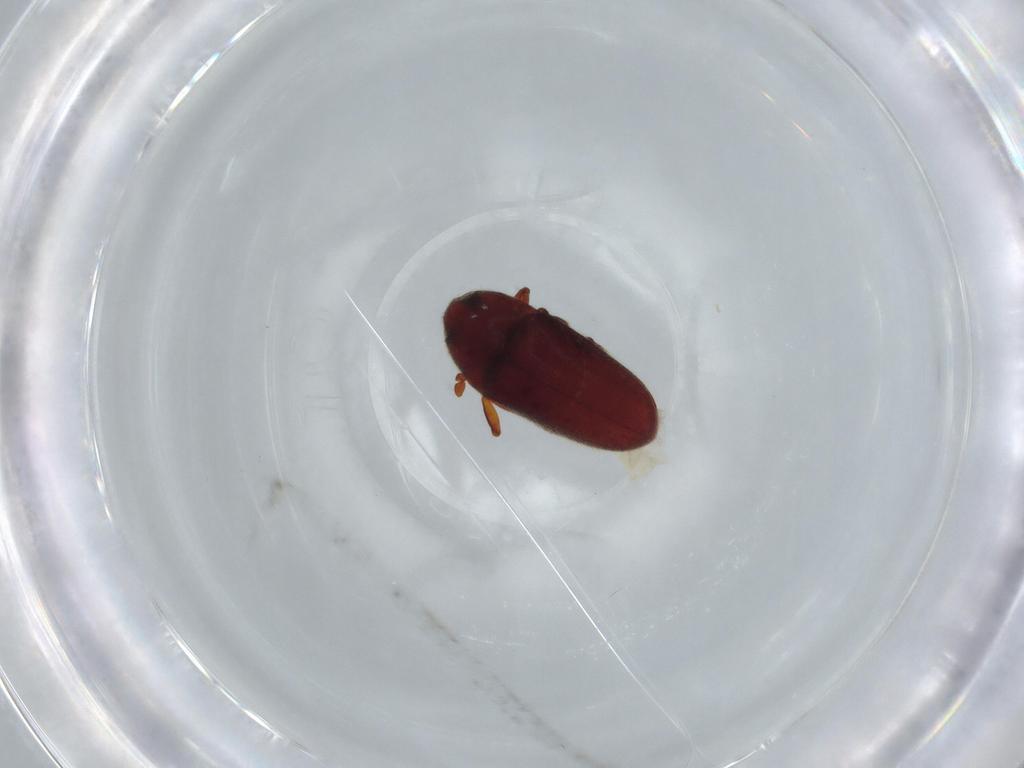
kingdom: Animalia
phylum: Arthropoda
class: Insecta
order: Coleoptera
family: Throscidae
